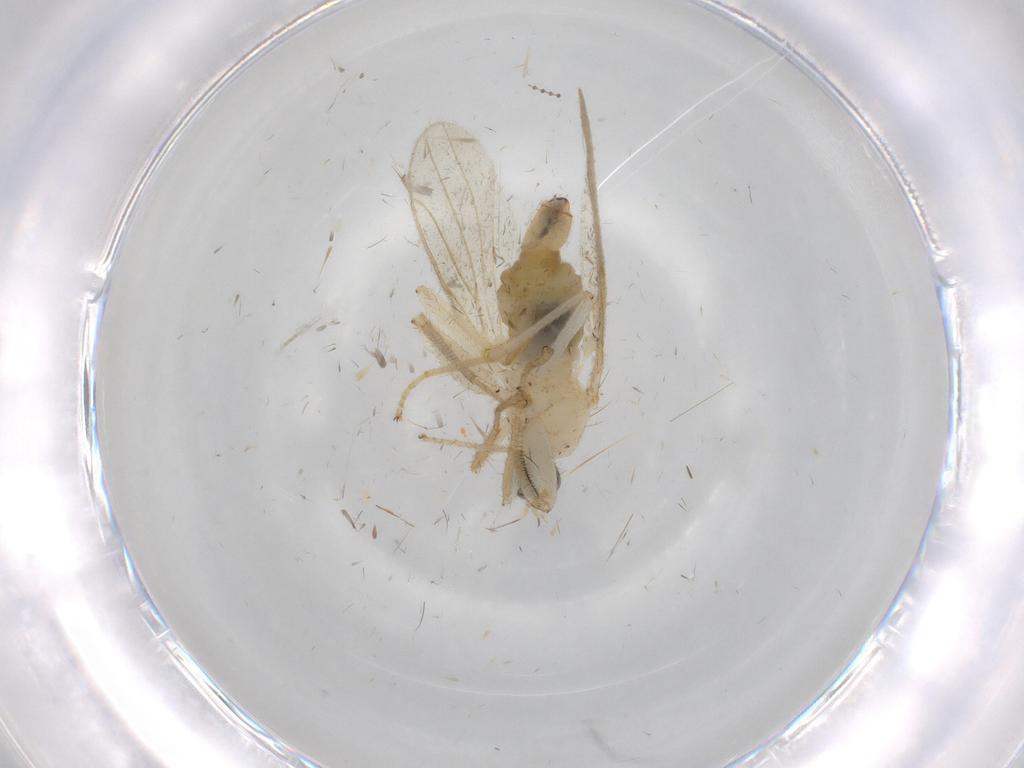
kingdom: Animalia
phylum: Arthropoda
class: Insecta
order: Diptera
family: Hybotidae
